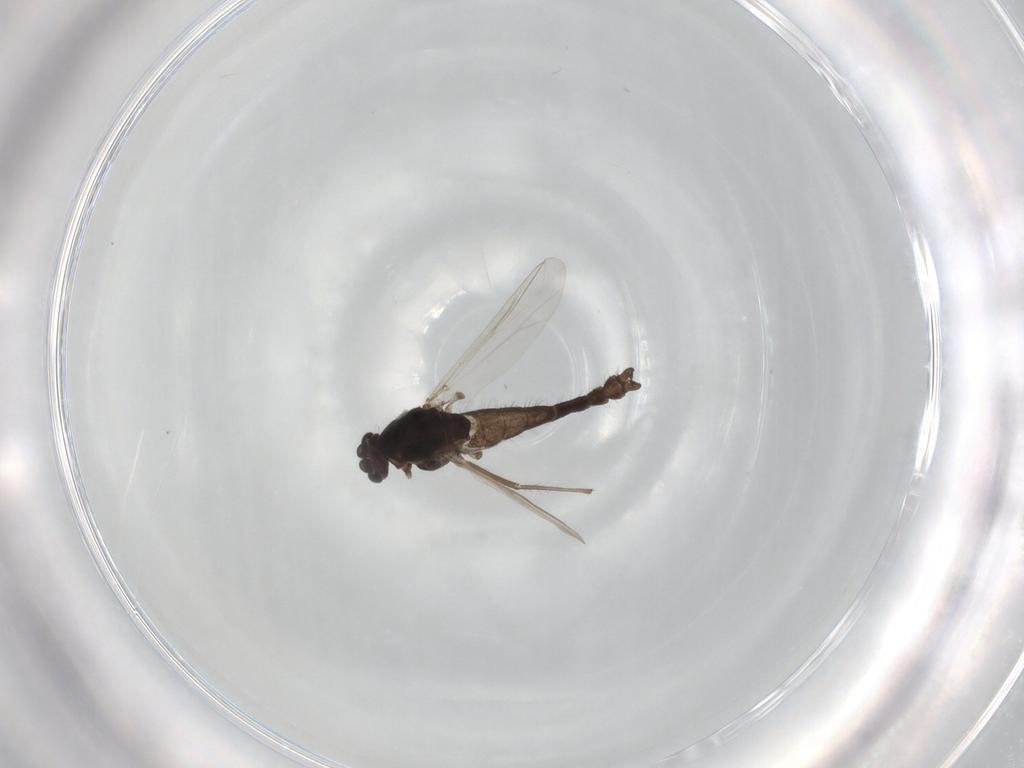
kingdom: Animalia
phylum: Arthropoda
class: Insecta
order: Diptera
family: Chironomidae
